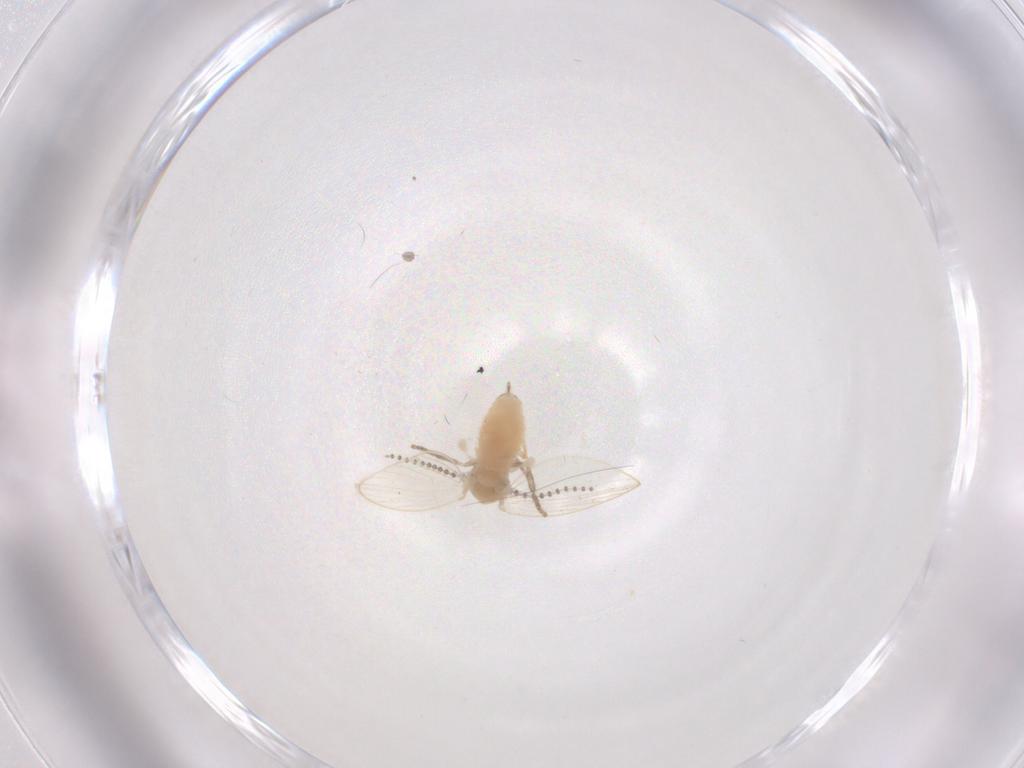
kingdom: Animalia
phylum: Arthropoda
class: Insecta
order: Diptera
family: Psychodidae
